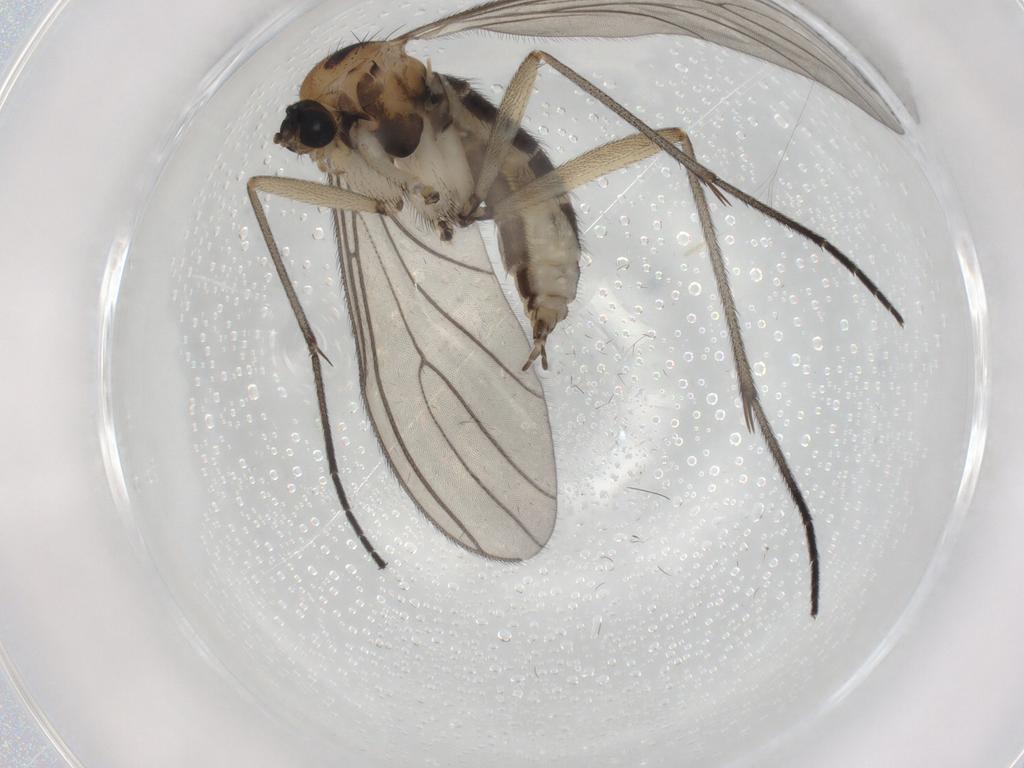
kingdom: Animalia
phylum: Arthropoda
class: Insecta
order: Diptera
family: Sciaridae
